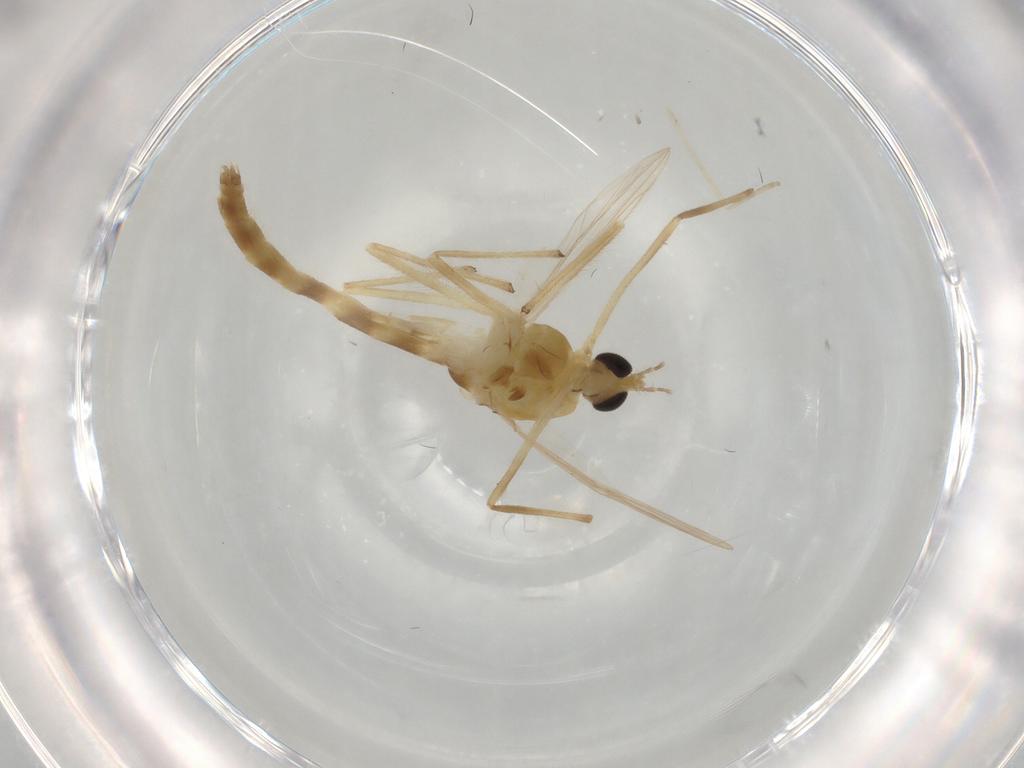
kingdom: Animalia
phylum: Arthropoda
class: Insecta
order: Diptera
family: Chironomidae
